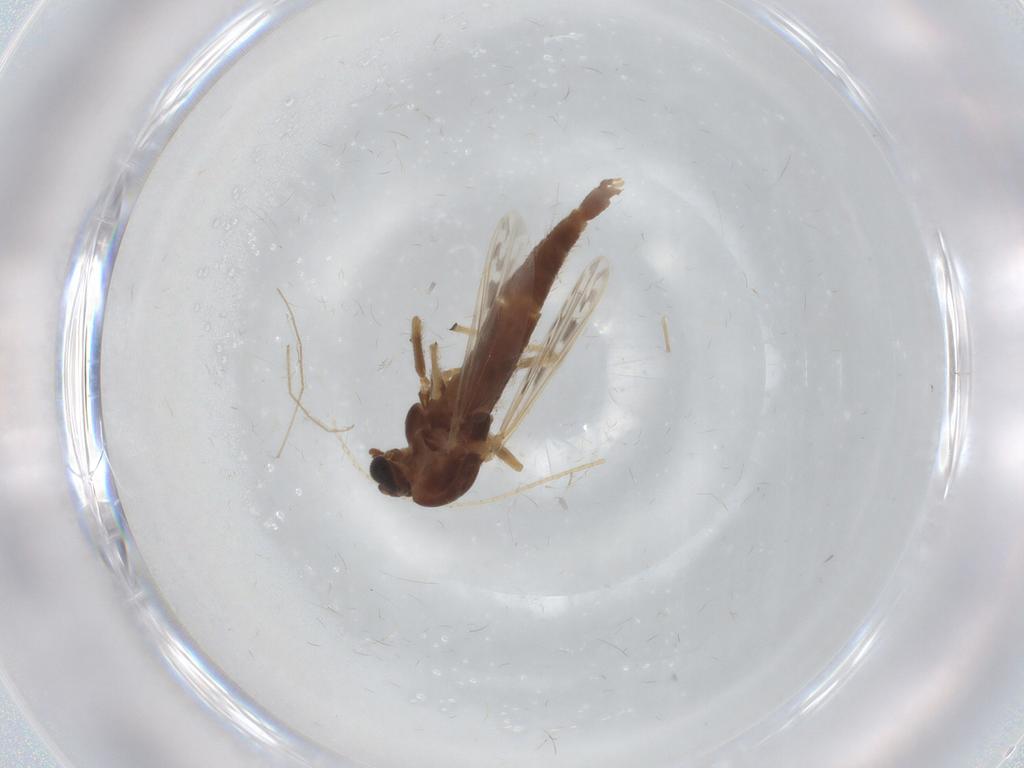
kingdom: Animalia
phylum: Arthropoda
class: Insecta
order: Diptera
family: Chironomidae
